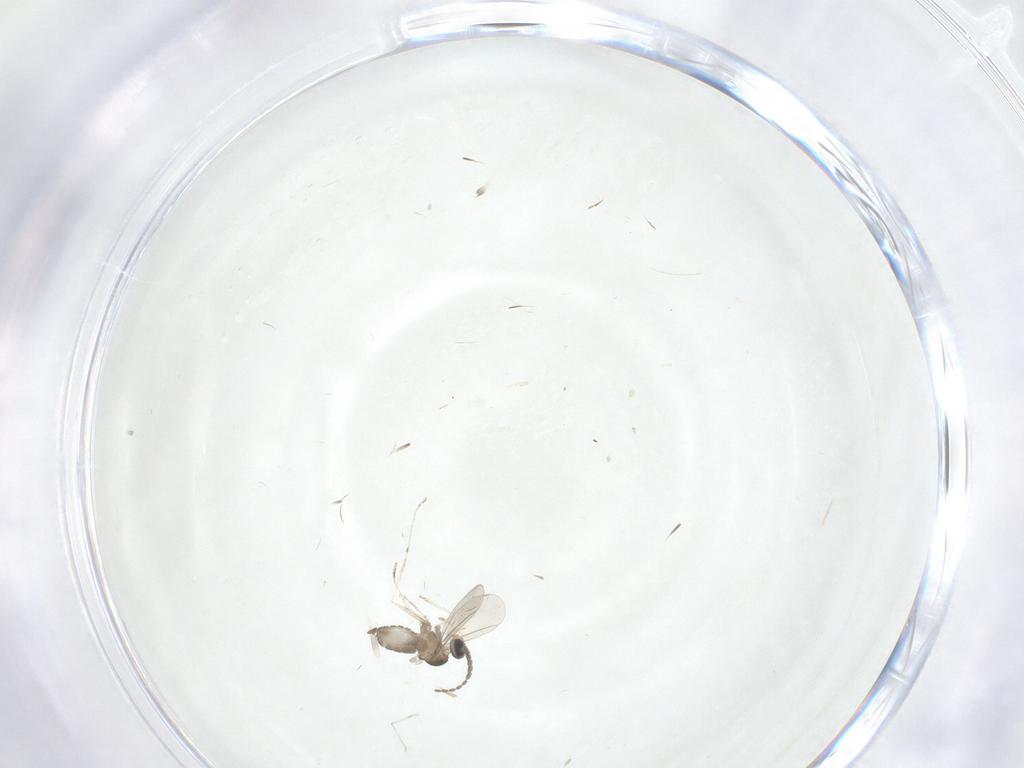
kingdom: Animalia
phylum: Arthropoda
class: Insecta
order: Diptera
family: Cecidomyiidae
